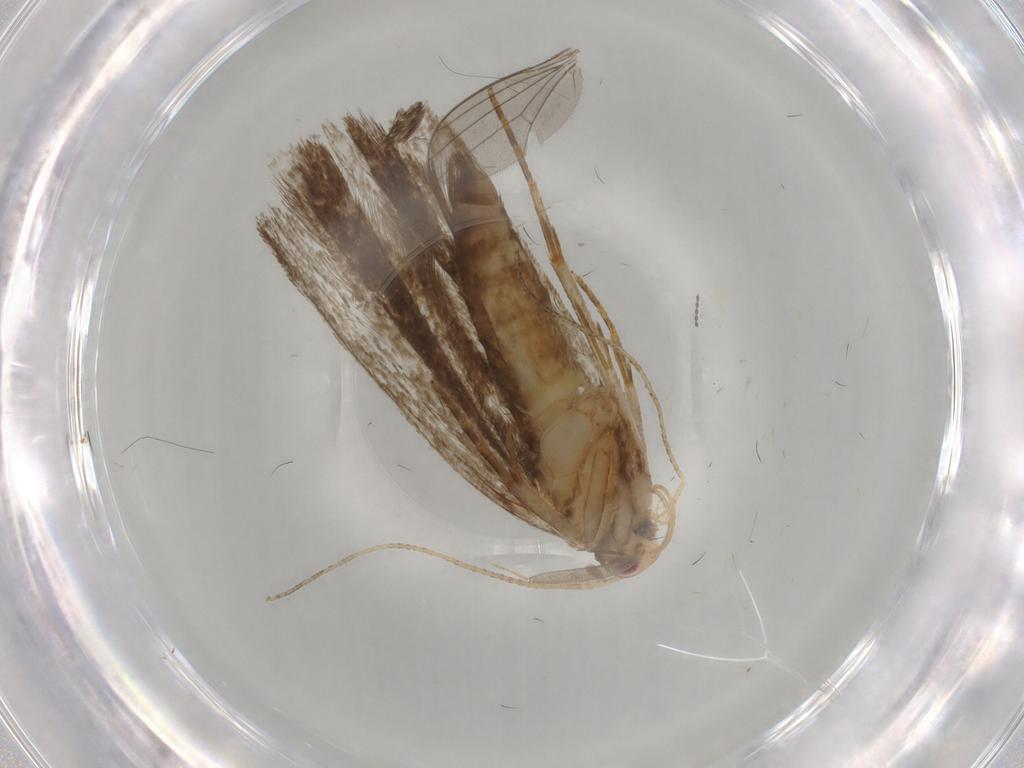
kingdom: Animalia
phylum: Arthropoda
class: Insecta
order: Lepidoptera
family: Gelechiidae
